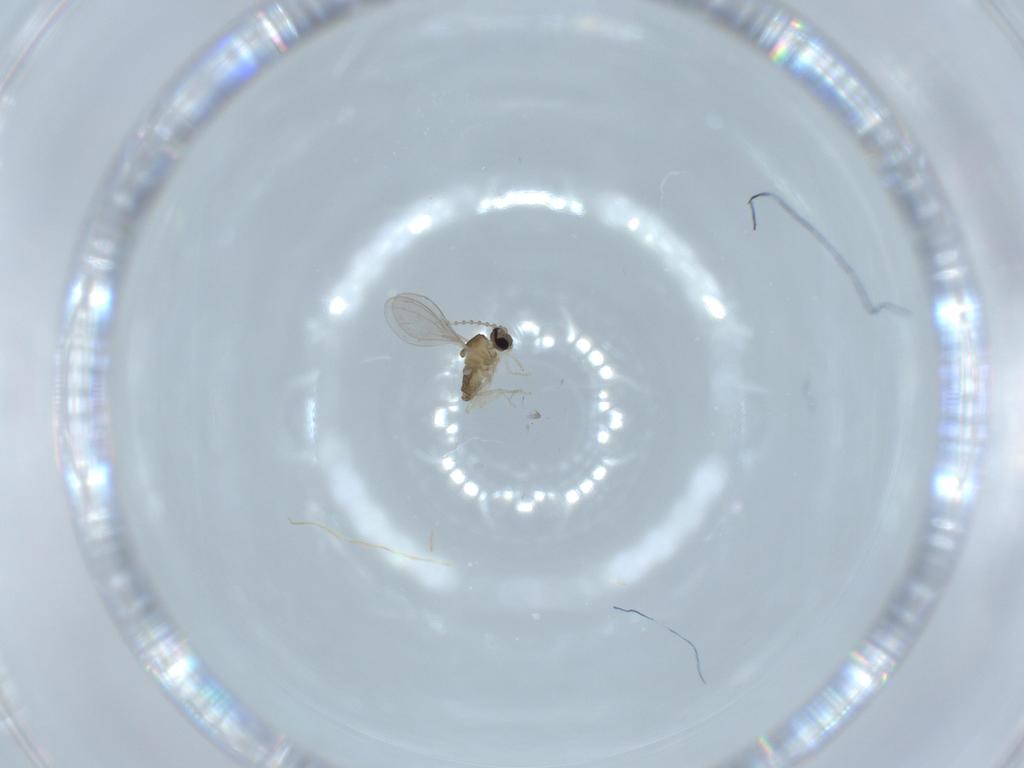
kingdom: Animalia
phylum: Arthropoda
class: Insecta
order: Diptera
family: Cecidomyiidae
